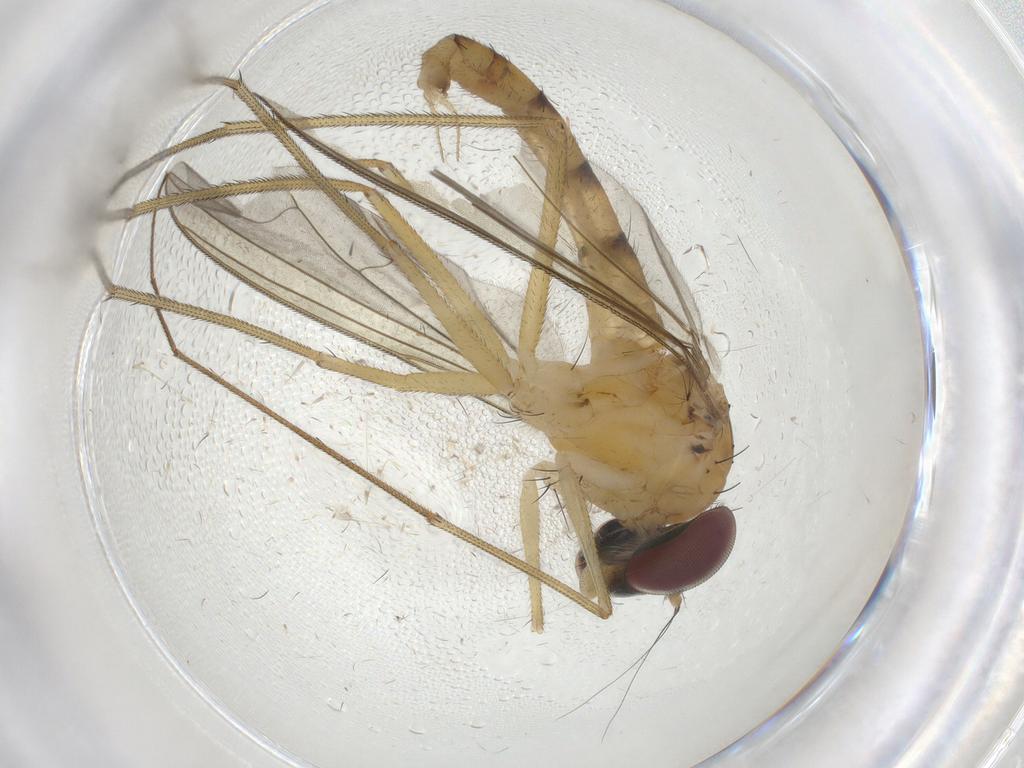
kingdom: Animalia
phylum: Arthropoda
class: Insecta
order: Diptera
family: Dolichopodidae
